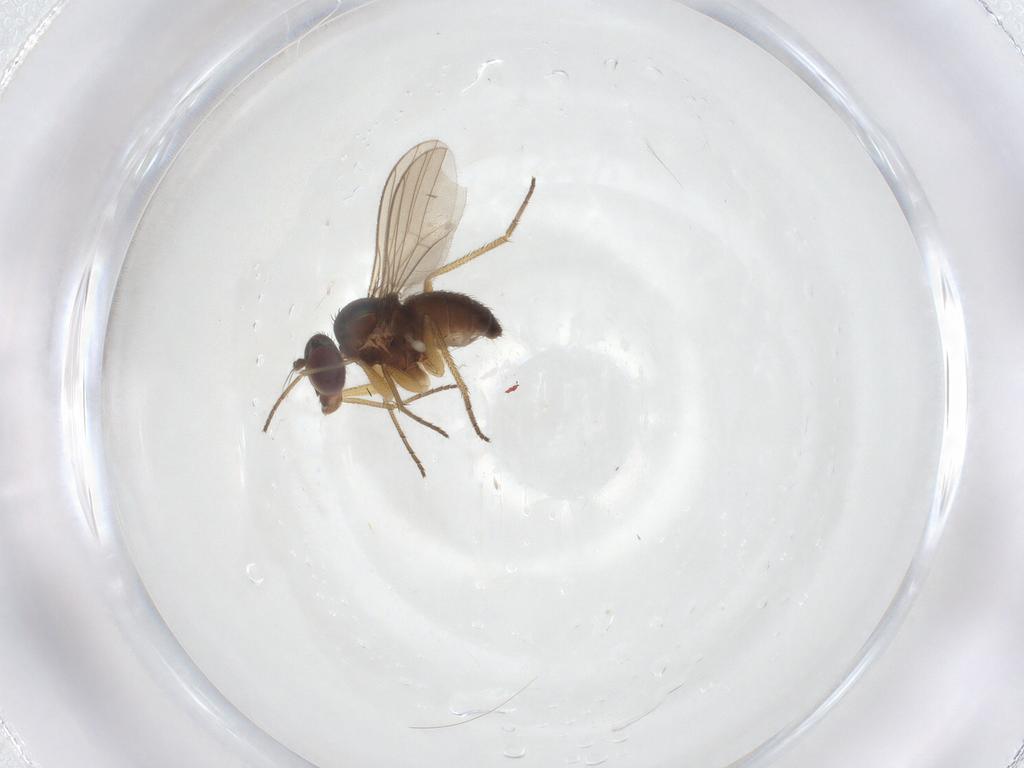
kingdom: Animalia
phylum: Arthropoda
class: Insecta
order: Diptera
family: Dolichopodidae
